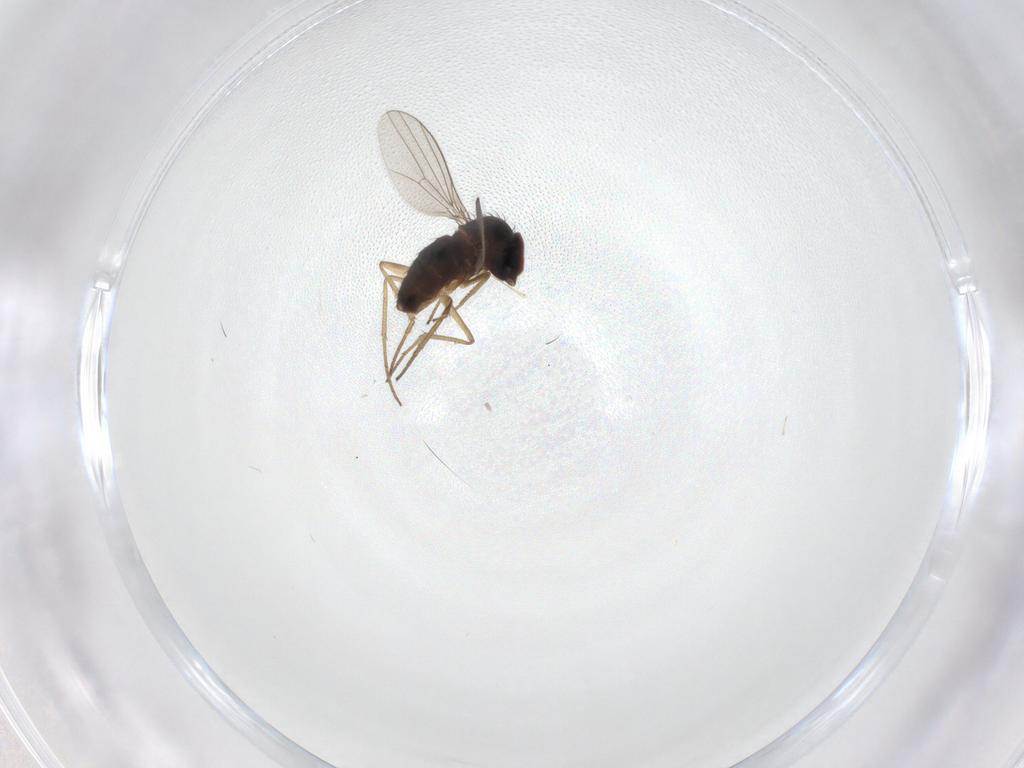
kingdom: Animalia
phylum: Arthropoda
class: Insecta
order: Diptera
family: Dolichopodidae
